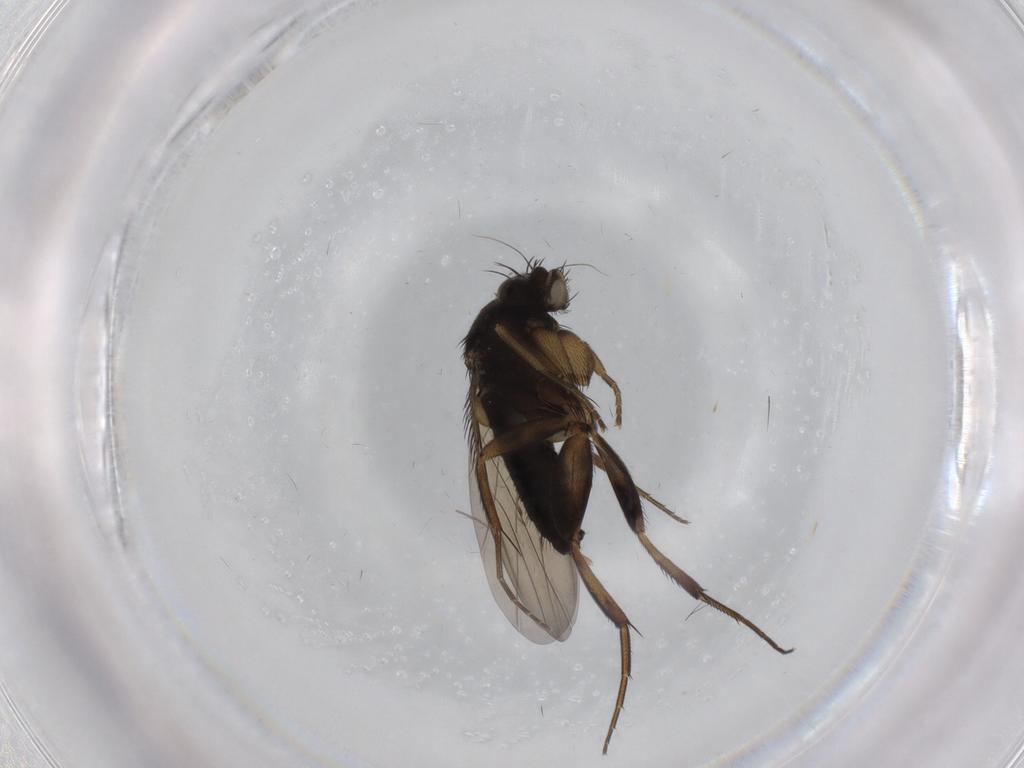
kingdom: Animalia
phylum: Arthropoda
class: Insecta
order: Diptera
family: Phoridae
